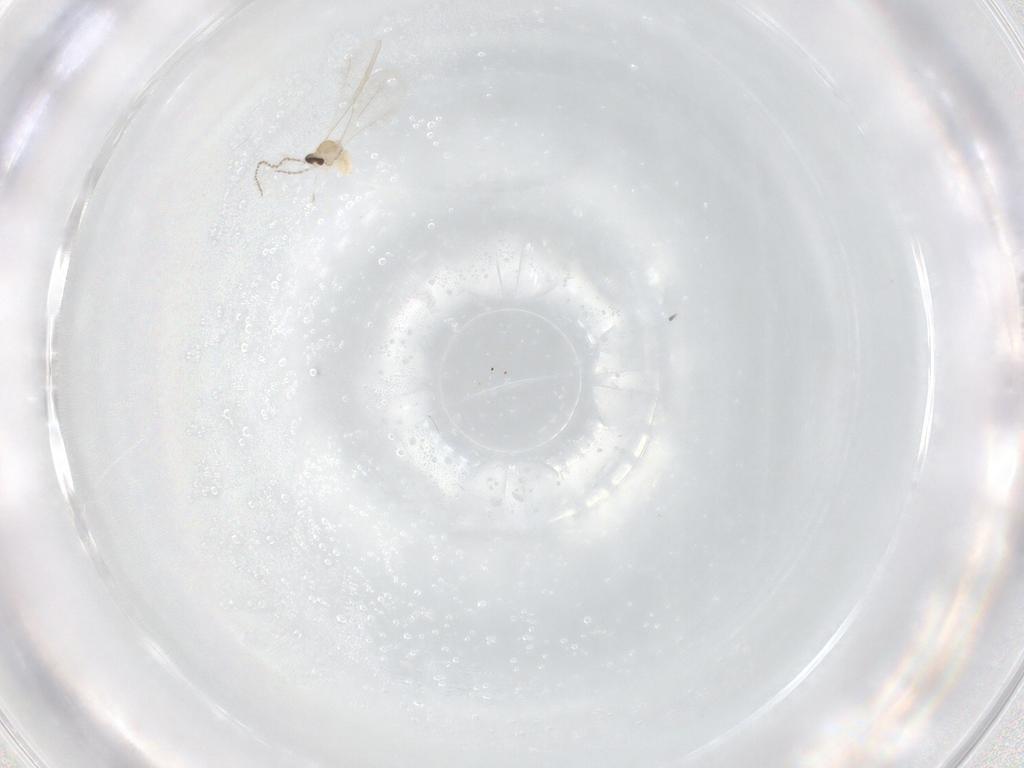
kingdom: Animalia
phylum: Arthropoda
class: Insecta
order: Diptera
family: Cecidomyiidae
